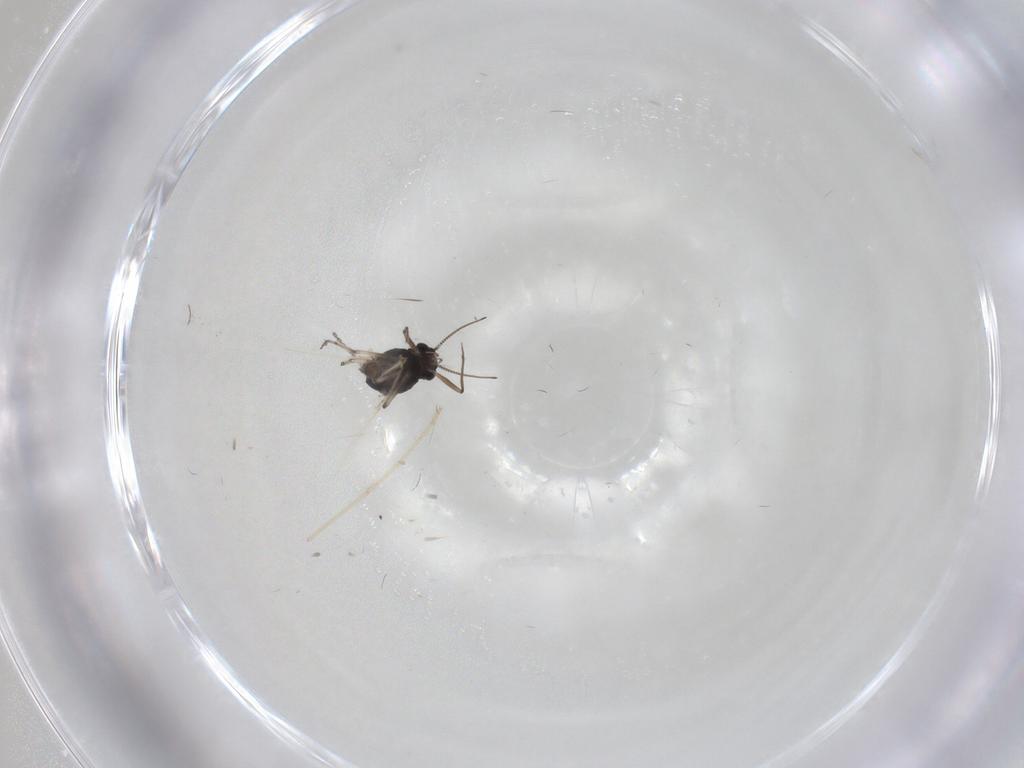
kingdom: Animalia
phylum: Arthropoda
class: Insecta
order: Diptera
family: Chironomidae
